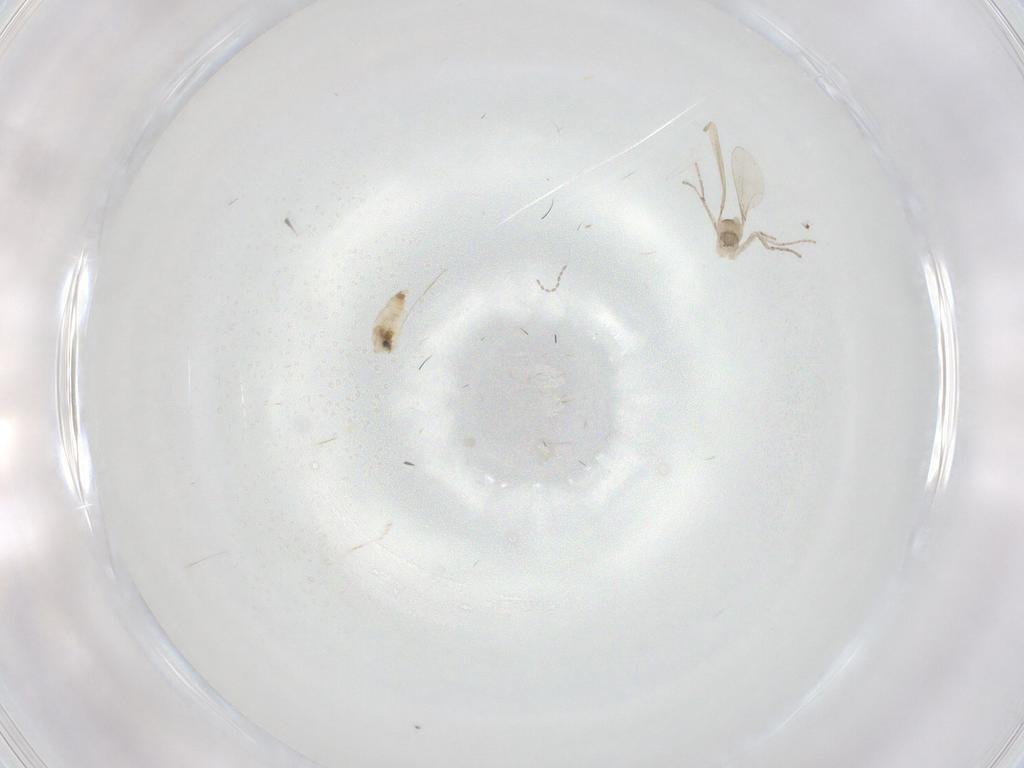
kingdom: Animalia
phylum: Arthropoda
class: Insecta
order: Diptera
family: Cecidomyiidae
